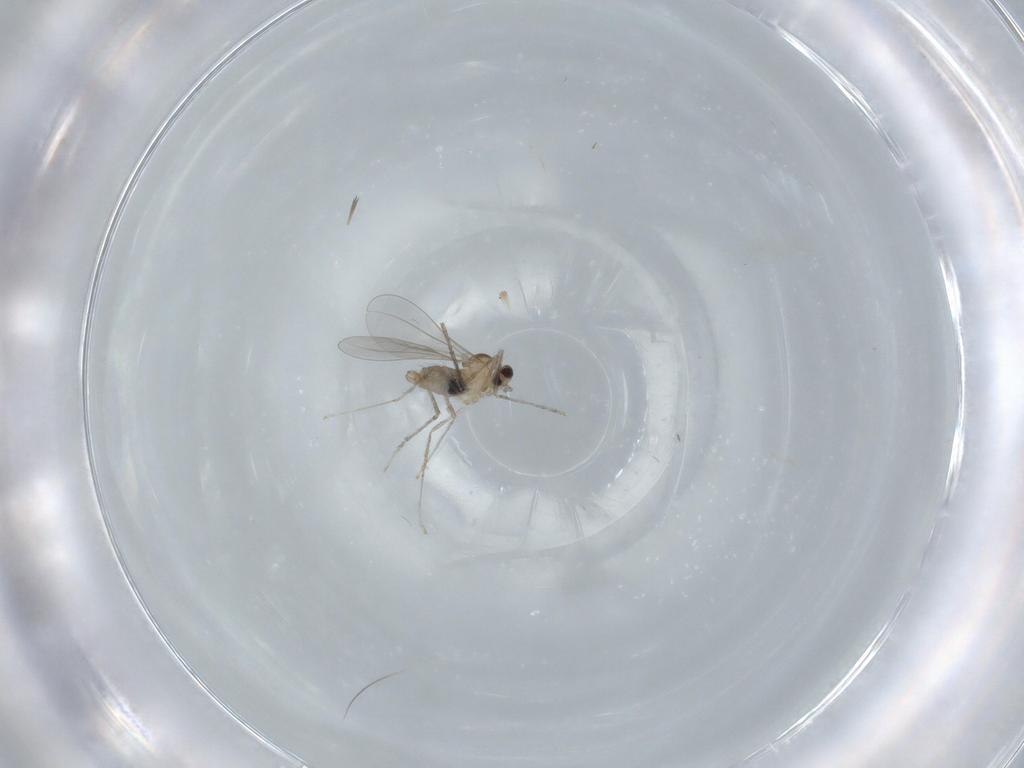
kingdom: Animalia
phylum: Arthropoda
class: Insecta
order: Diptera
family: Cecidomyiidae
